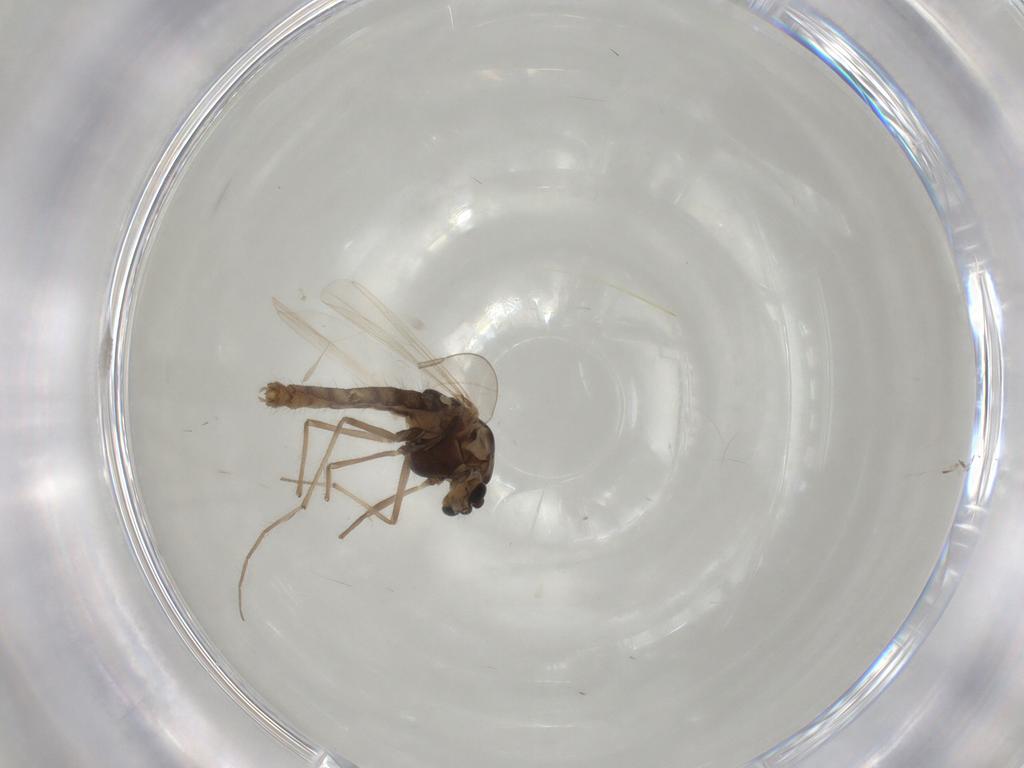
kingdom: Animalia
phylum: Arthropoda
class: Insecta
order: Diptera
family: Chironomidae
